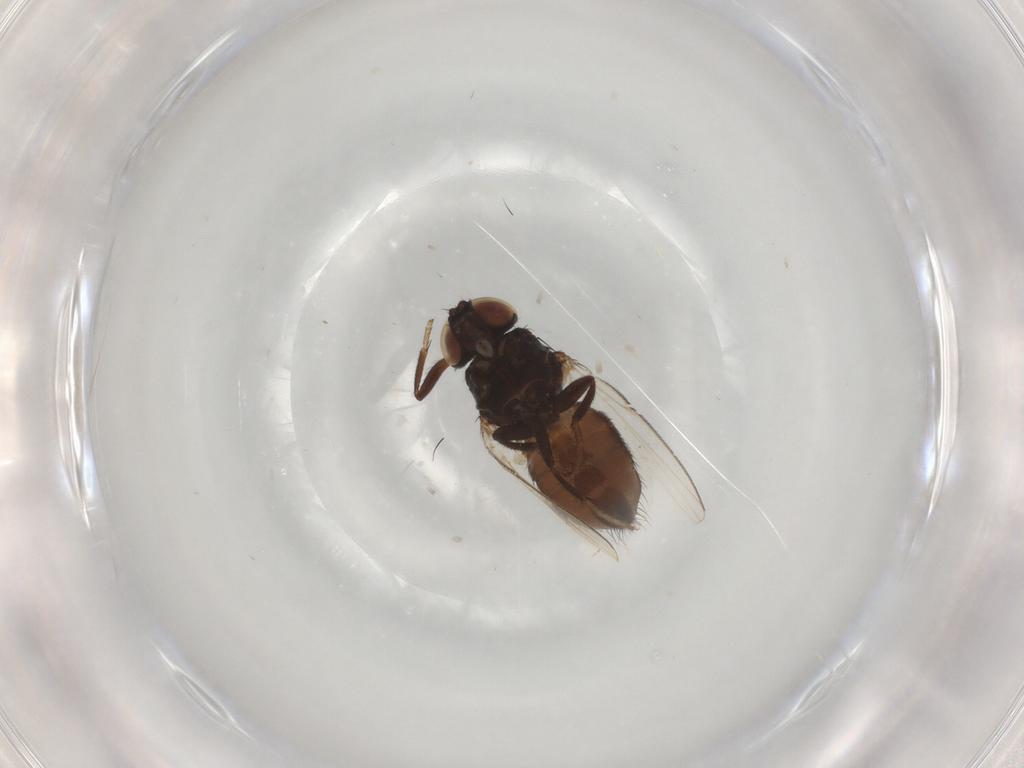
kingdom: Animalia
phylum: Arthropoda
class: Insecta
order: Diptera
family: Milichiidae
